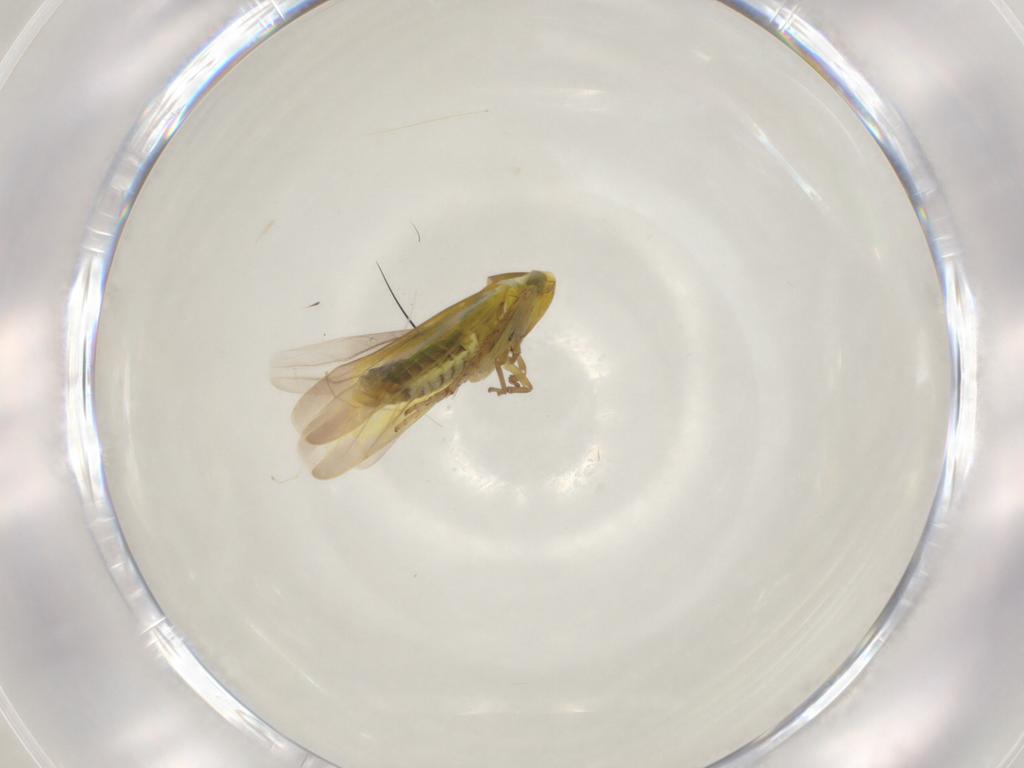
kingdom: Animalia
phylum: Arthropoda
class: Insecta
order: Hemiptera
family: Cicadellidae
